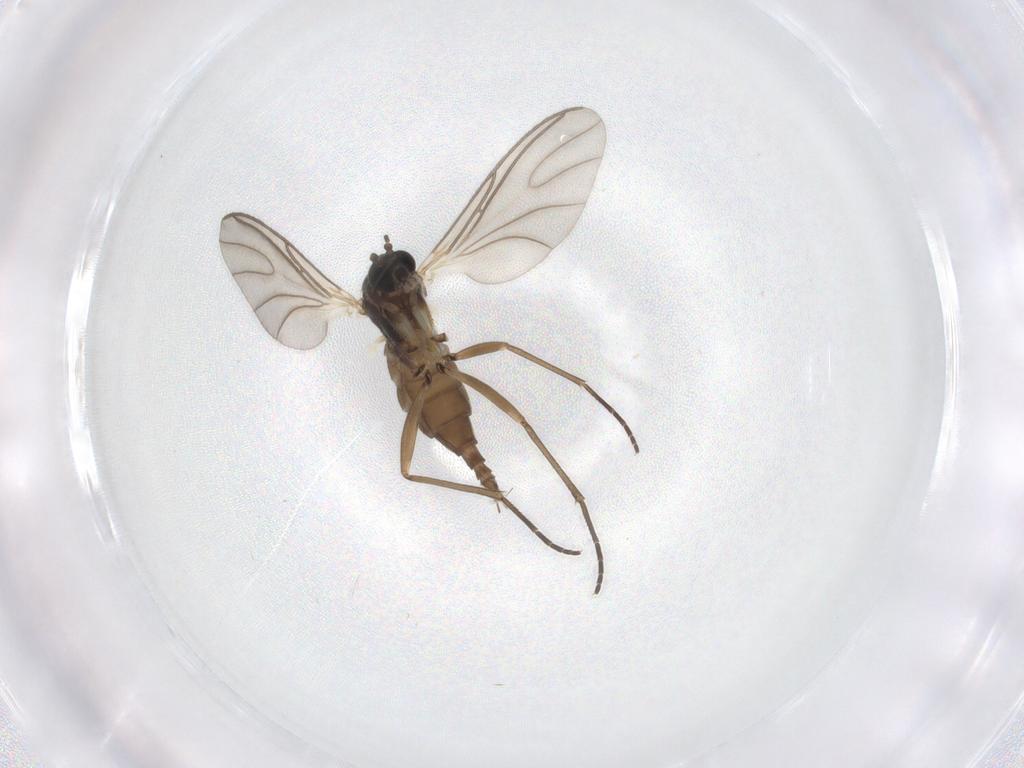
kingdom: Animalia
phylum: Arthropoda
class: Insecta
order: Diptera
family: Sciaridae
